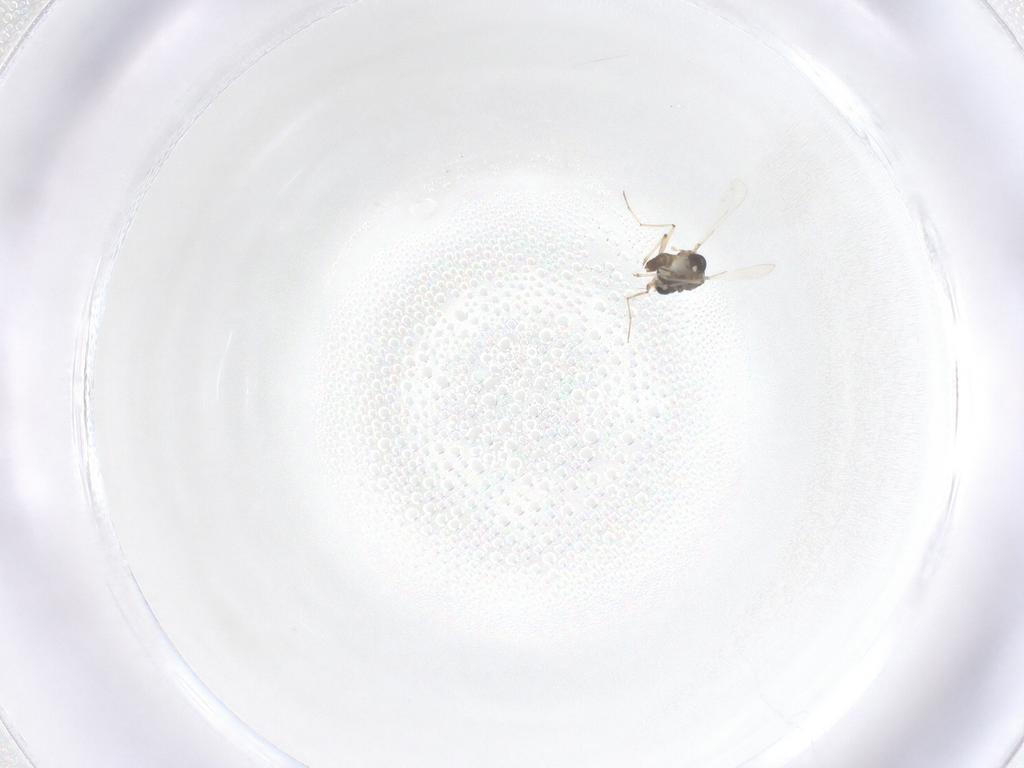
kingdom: Animalia
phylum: Arthropoda
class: Insecta
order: Diptera
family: Chironomidae
